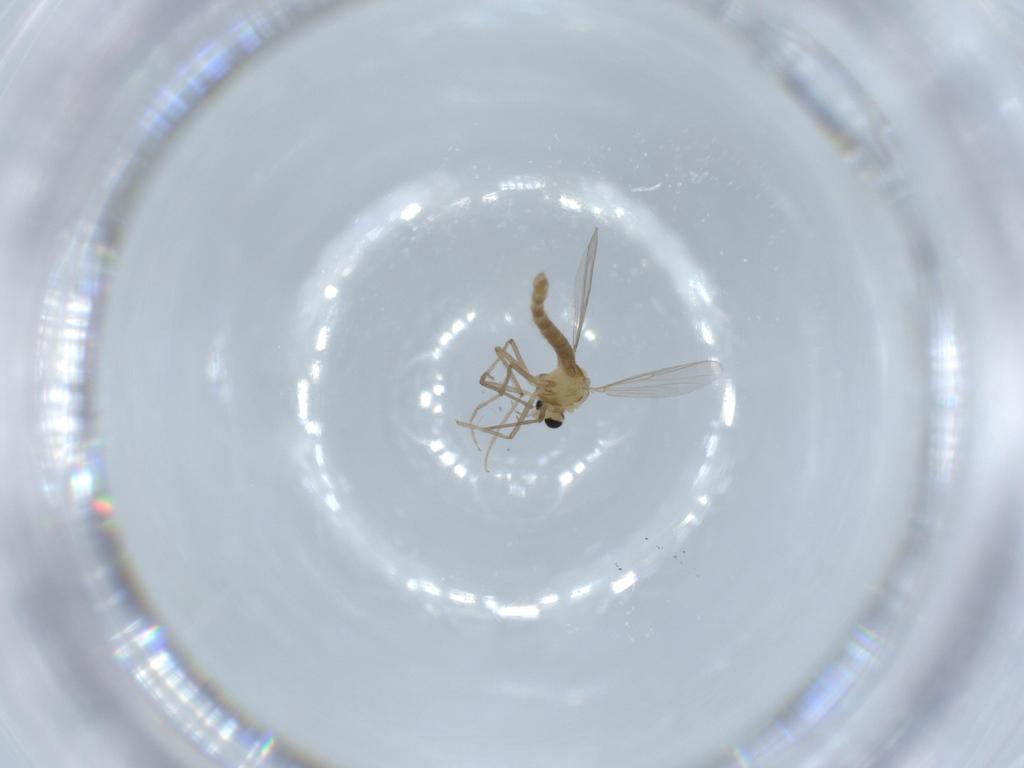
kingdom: Animalia
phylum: Arthropoda
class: Insecta
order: Diptera
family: Chironomidae
